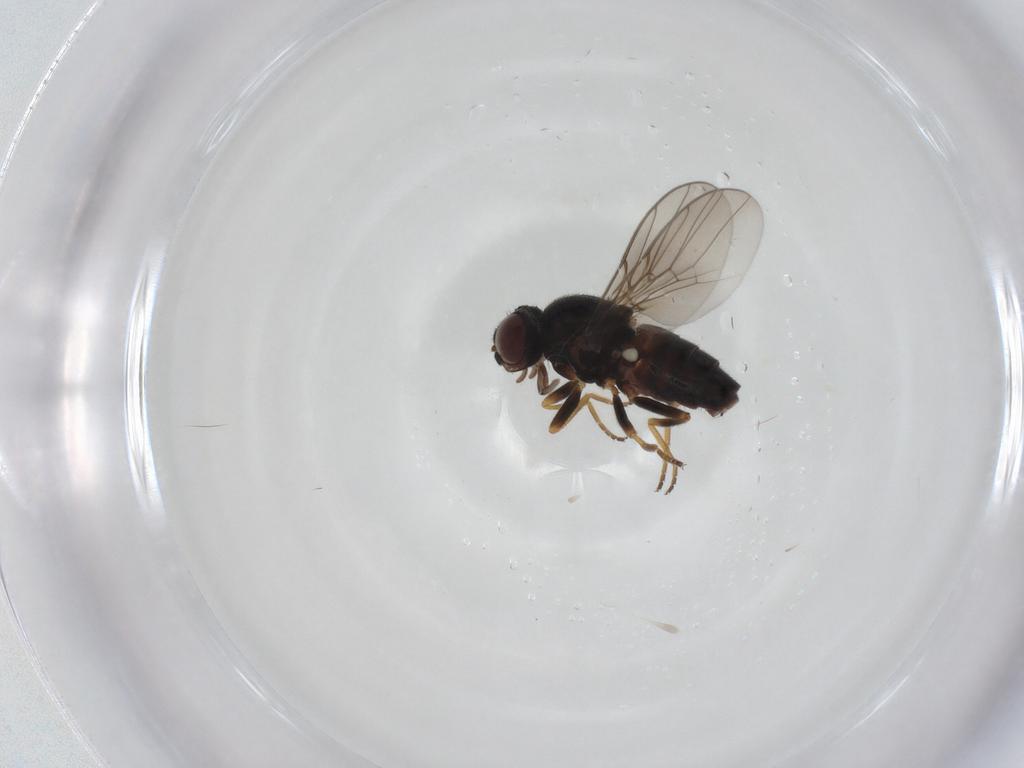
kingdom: Animalia
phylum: Arthropoda
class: Insecta
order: Diptera
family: Chloropidae
